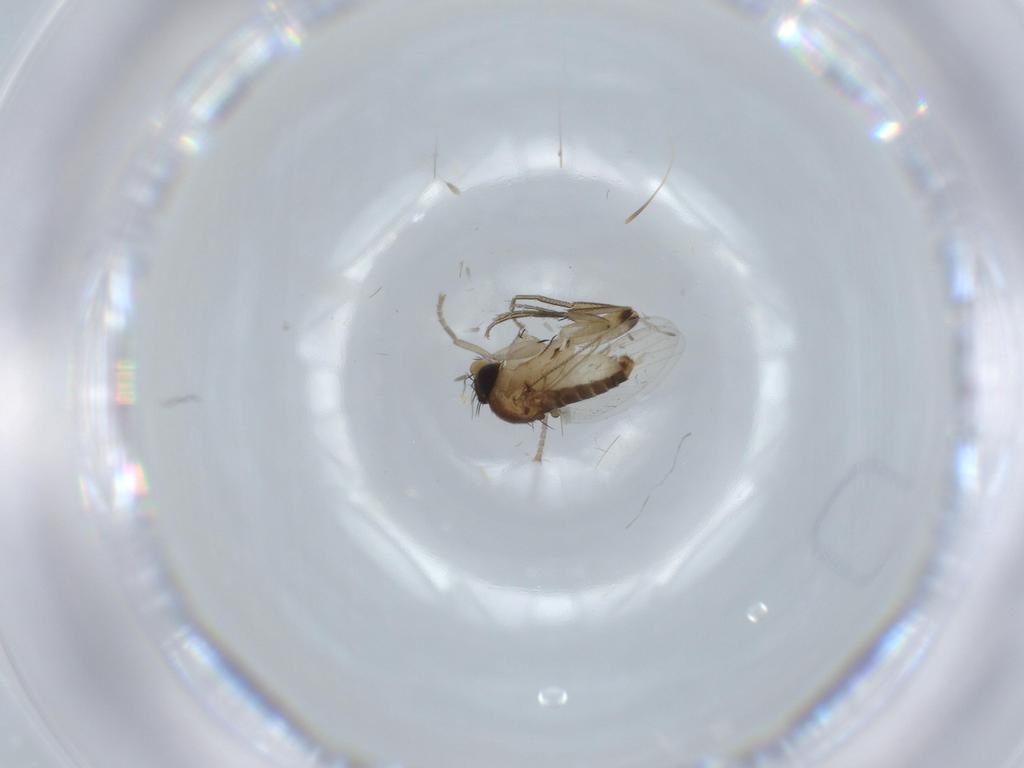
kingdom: Animalia
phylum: Arthropoda
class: Insecta
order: Diptera
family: Phoridae
